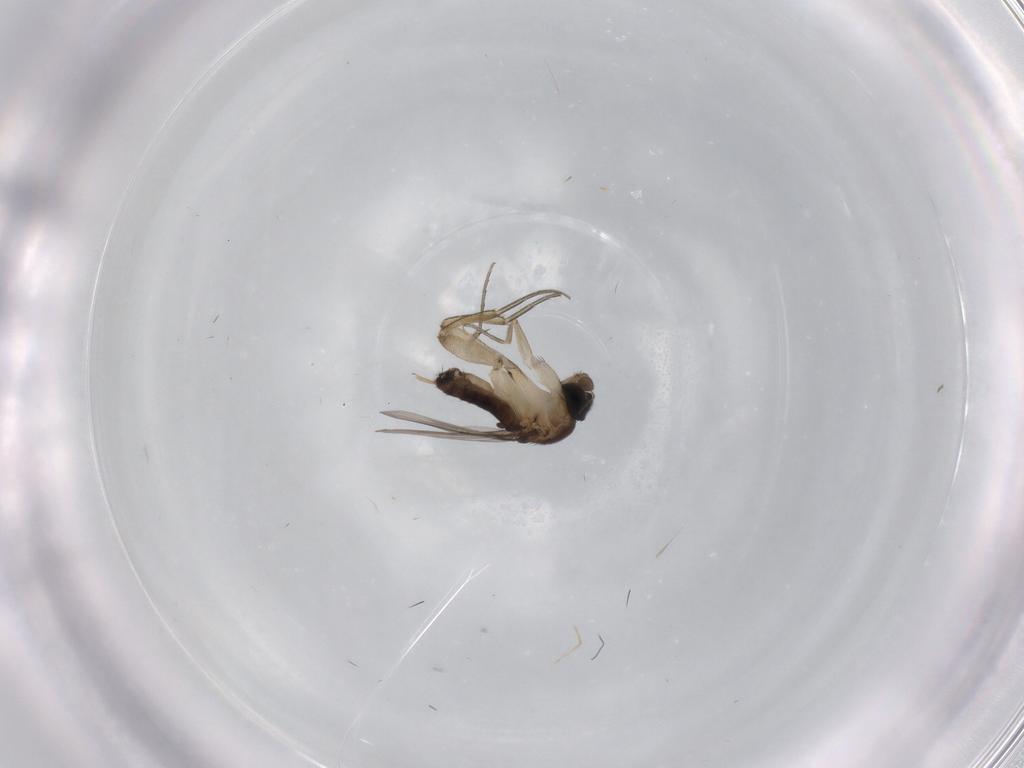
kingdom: Animalia
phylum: Arthropoda
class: Insecta
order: Diptera
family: Phoridae
